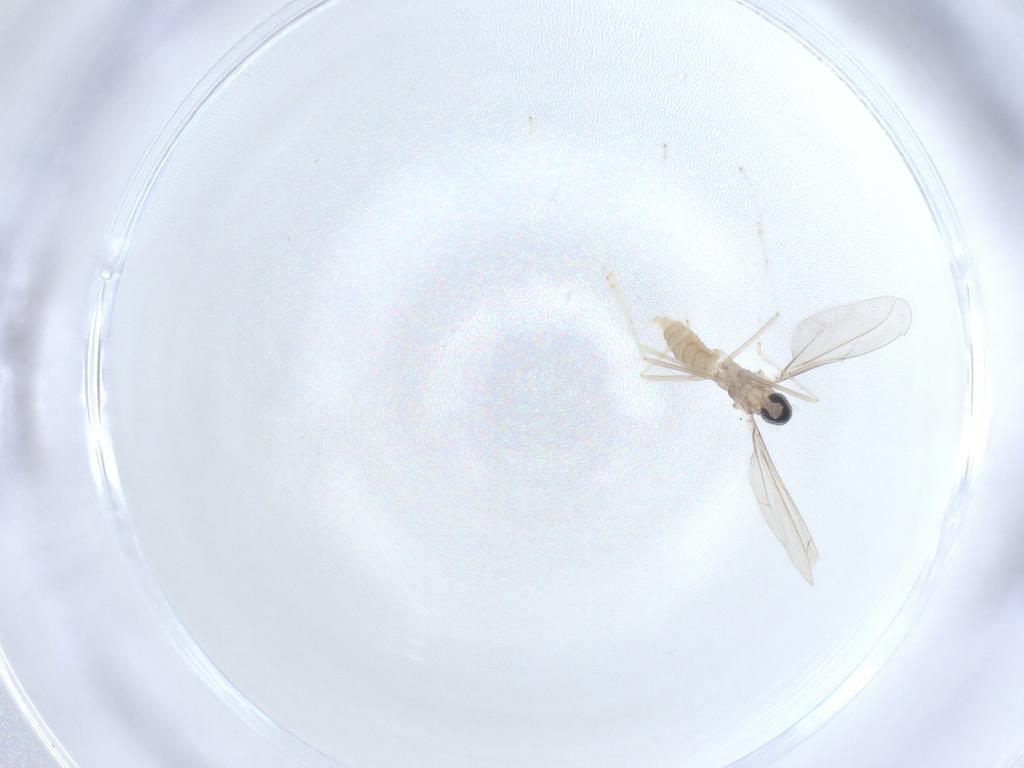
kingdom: Animalia
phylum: Arthropoda
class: Insecta
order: Diptera
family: Cecidomyiidae
